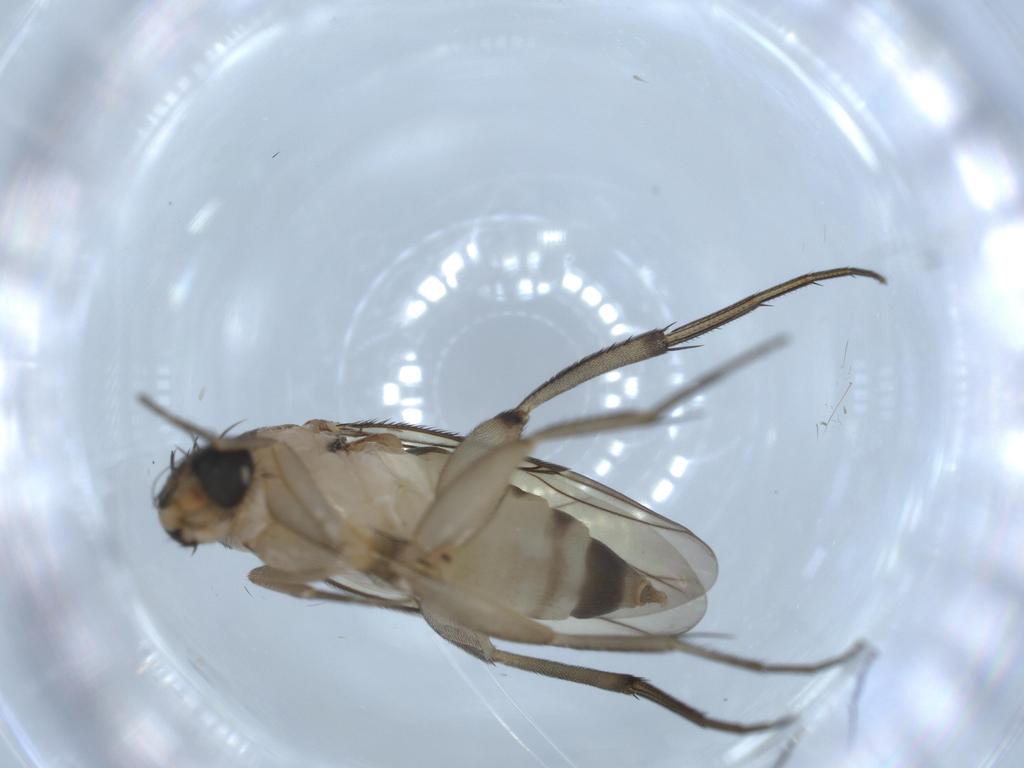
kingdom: Animalia
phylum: Arthropoda
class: Insecta
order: Diptera
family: Phoridae
